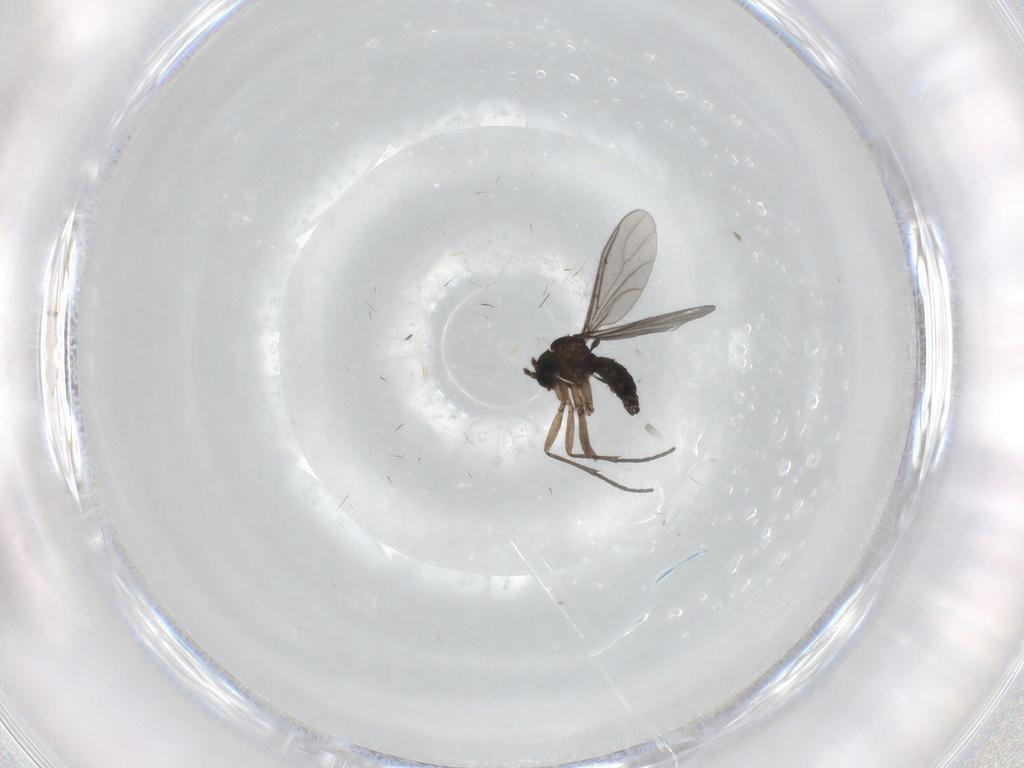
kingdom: Animalia
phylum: Arthropoda
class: Insecta
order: Diptera
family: Sciaridae
